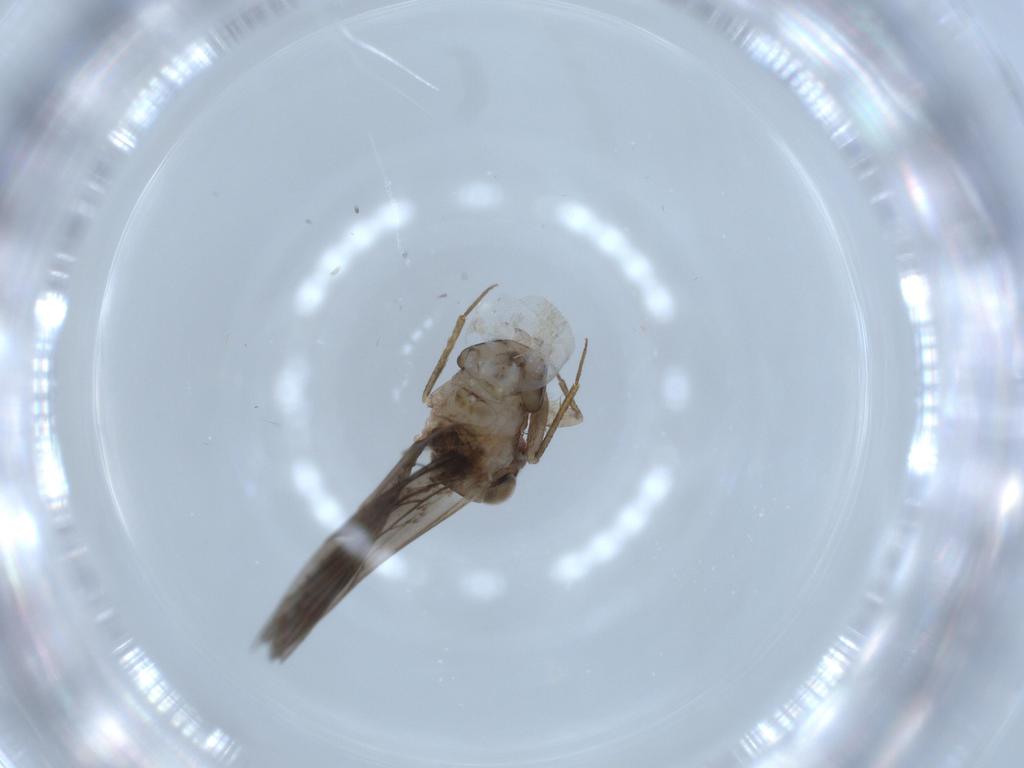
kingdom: Animalia
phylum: Arthropoda
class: Insecta
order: Psocodea
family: Lepidopsocidae
